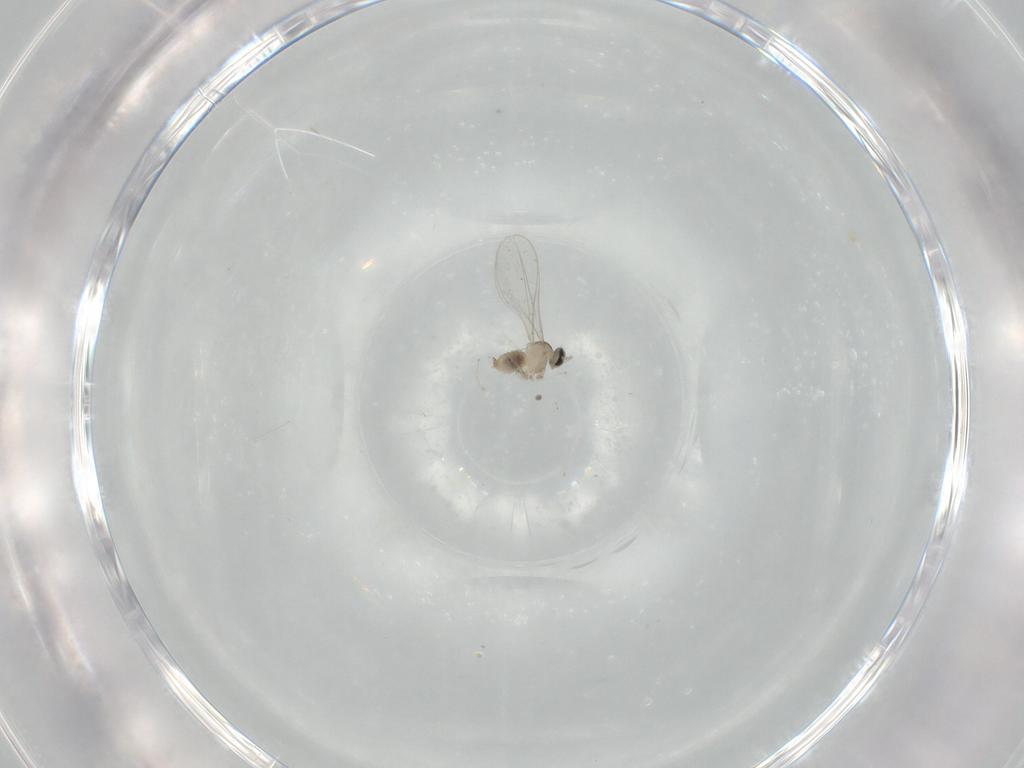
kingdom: Animalia
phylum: Arthropoda
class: Insecta
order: Diptera
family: Cecidomyiidae
